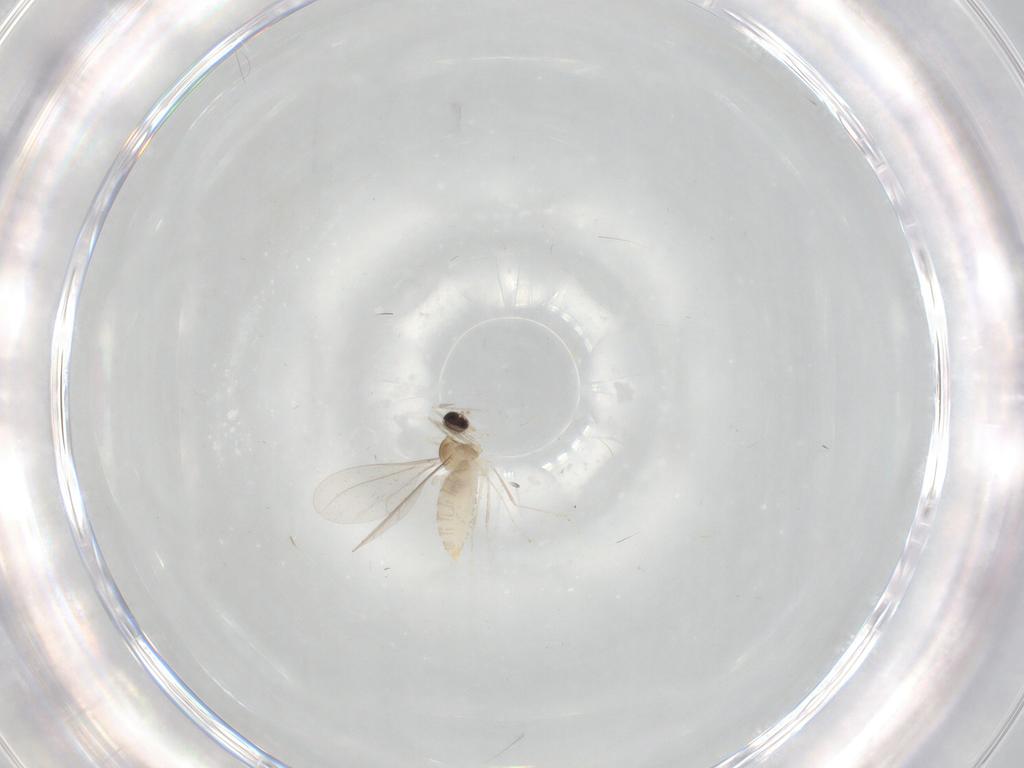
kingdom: Animalia
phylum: Arthropoda
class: Insecta
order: Diptera
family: Cecidomyiidae
